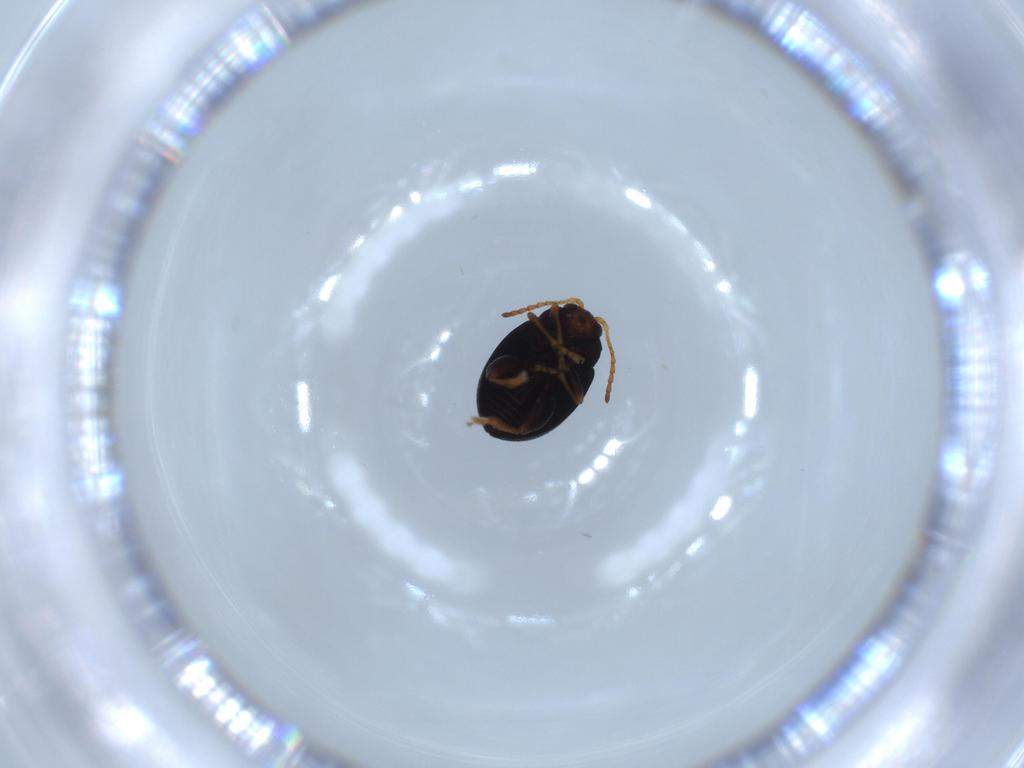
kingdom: Animalia
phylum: Arthropoda
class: Insecta
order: Coleoptera
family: Chrysomelidae
